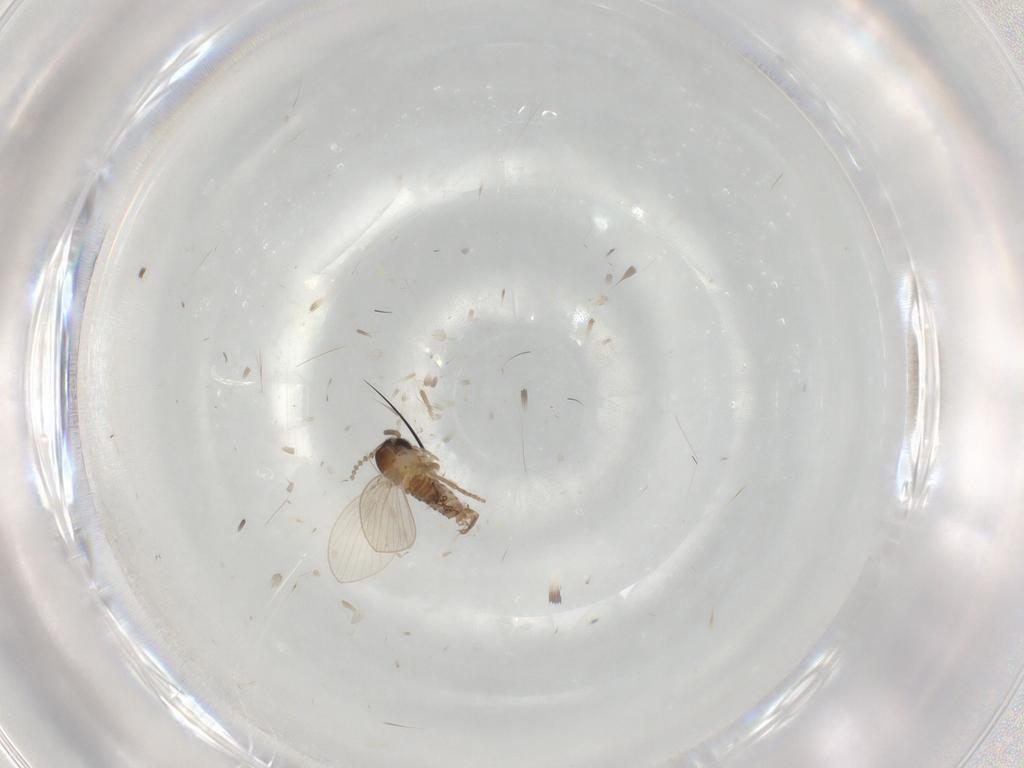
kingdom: Animalia
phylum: Arthropoda
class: Insecta
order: Diptera
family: Psychodidae
